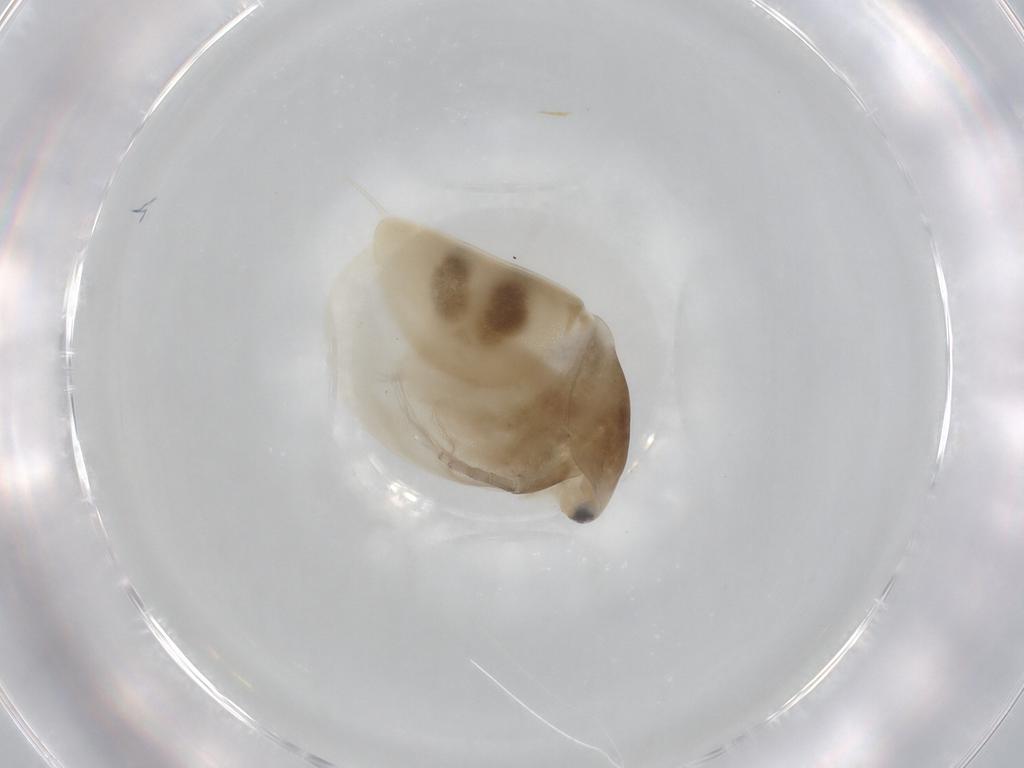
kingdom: Animalia
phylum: Arthropoda
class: Branchiopoda
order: Diplostraca
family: Daphniidae
